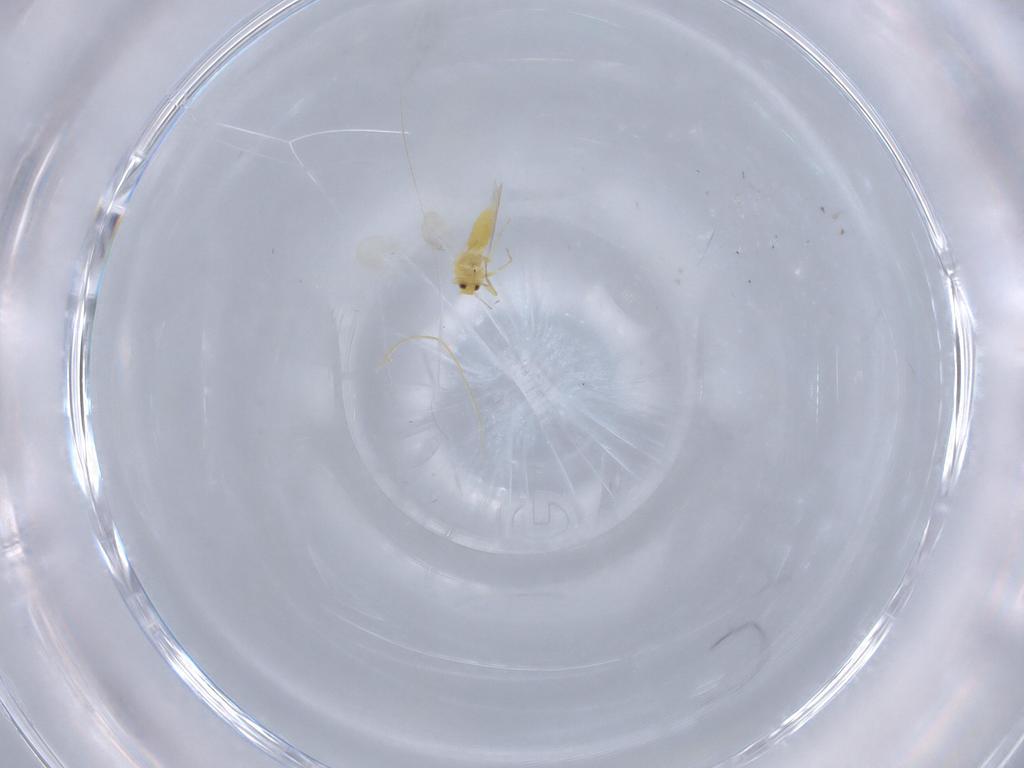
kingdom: Animalia
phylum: Arthropoda
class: Insecta
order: Hemiptera
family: Aleyrodidae
